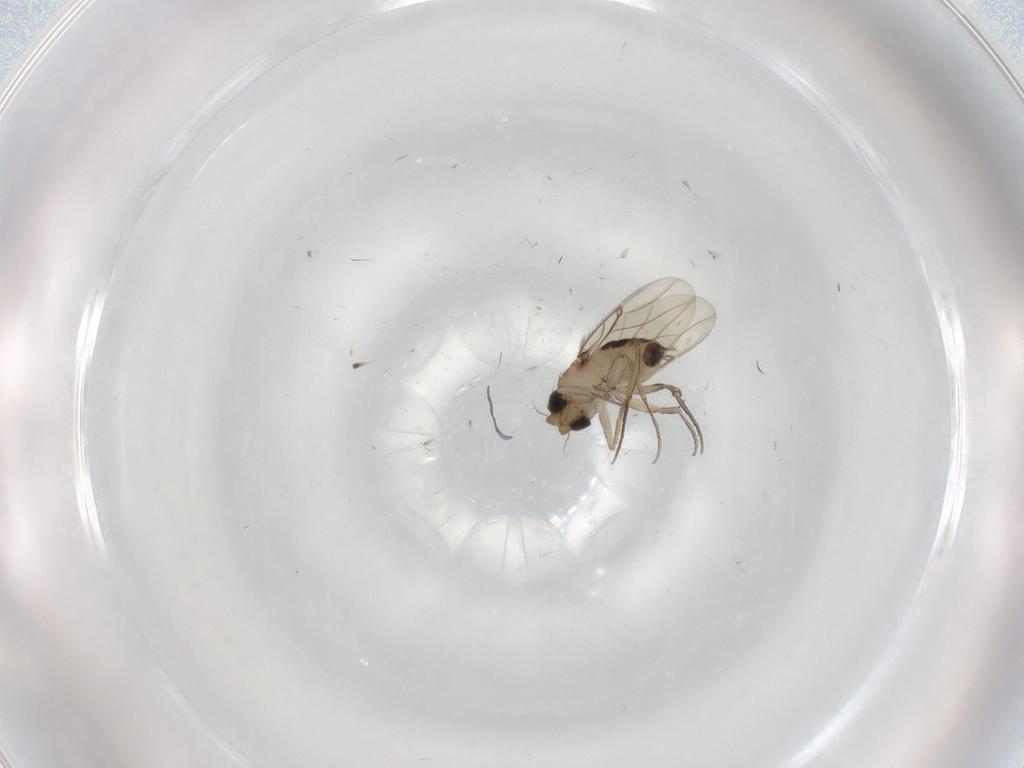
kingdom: Animalia
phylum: Arthropoda
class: Insecta
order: Diptera
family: Phoridae
